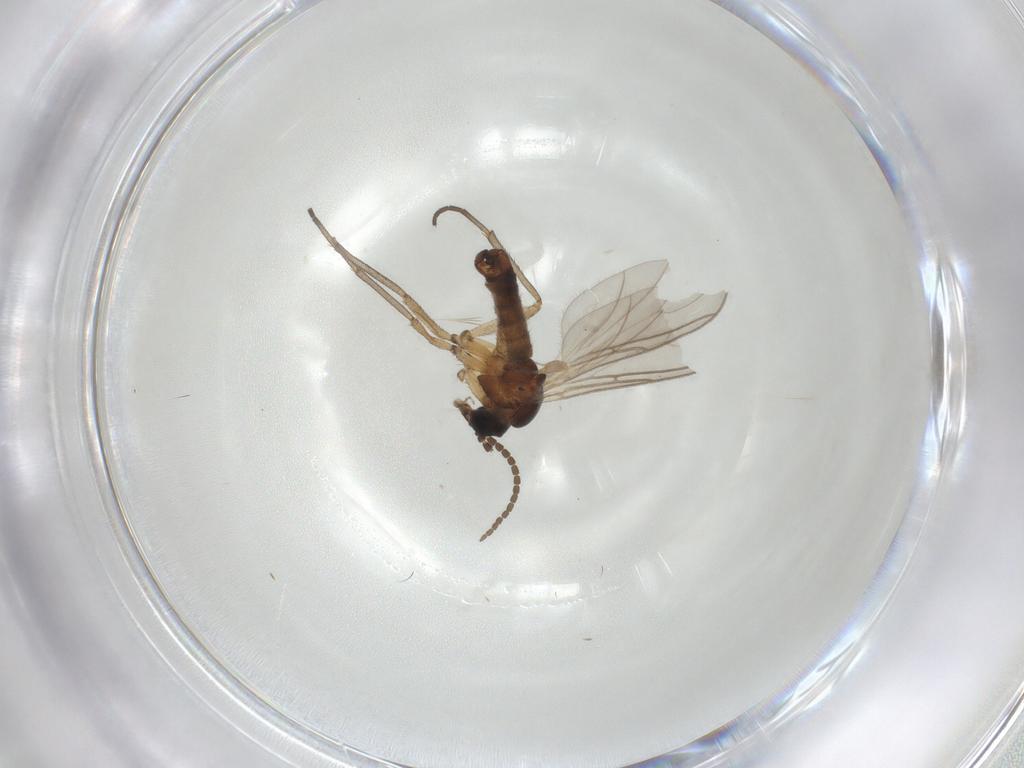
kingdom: Animalia
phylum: Arthropoda
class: Insecta
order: Diptera
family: Sciaridae
